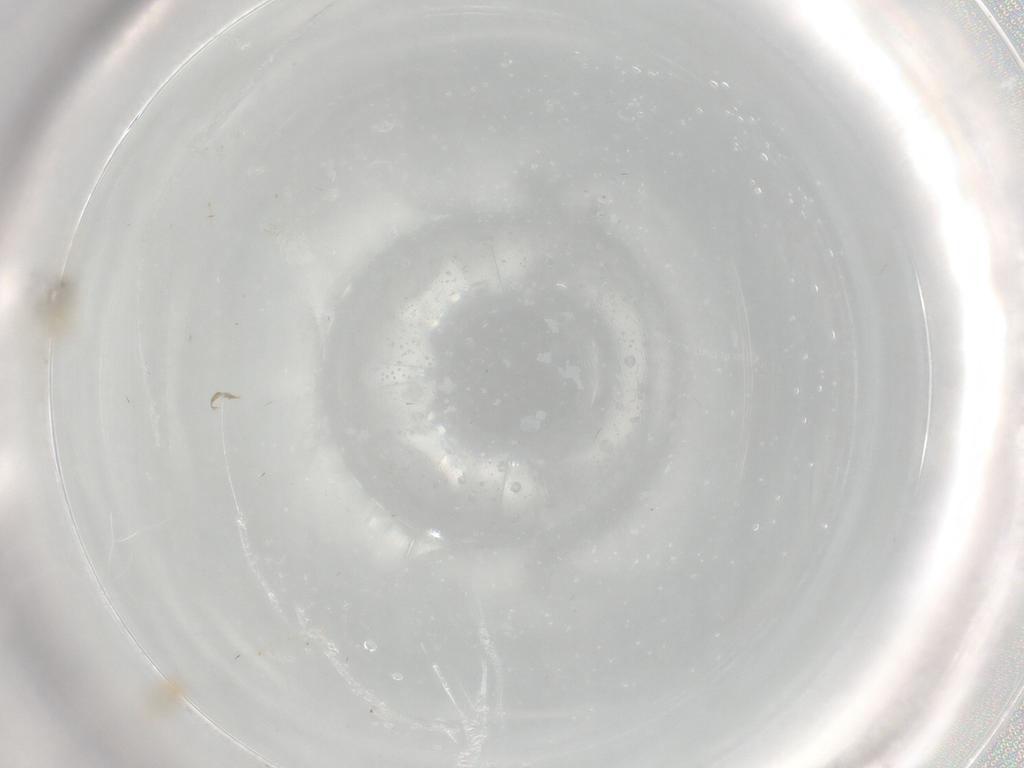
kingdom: Animalia
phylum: Arthropoda
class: Insecta
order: Diptera
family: Cecidomyiidae
